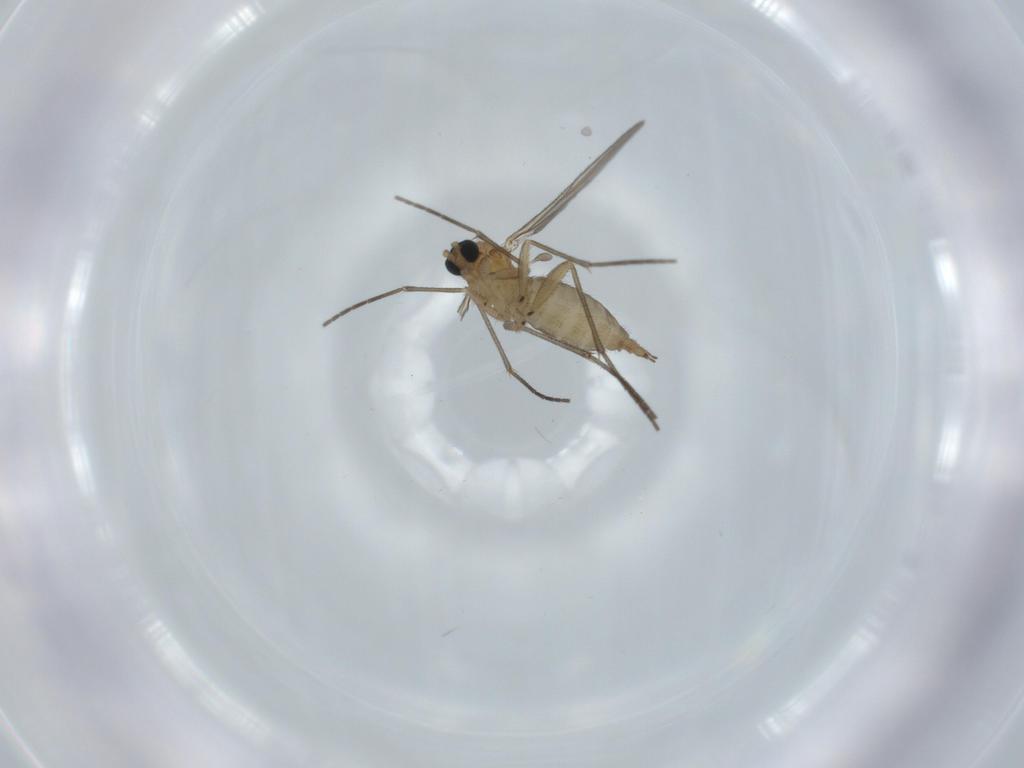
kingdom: Animalia
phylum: Arthropoda
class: Insecta
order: Diptera
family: Sciaridae
